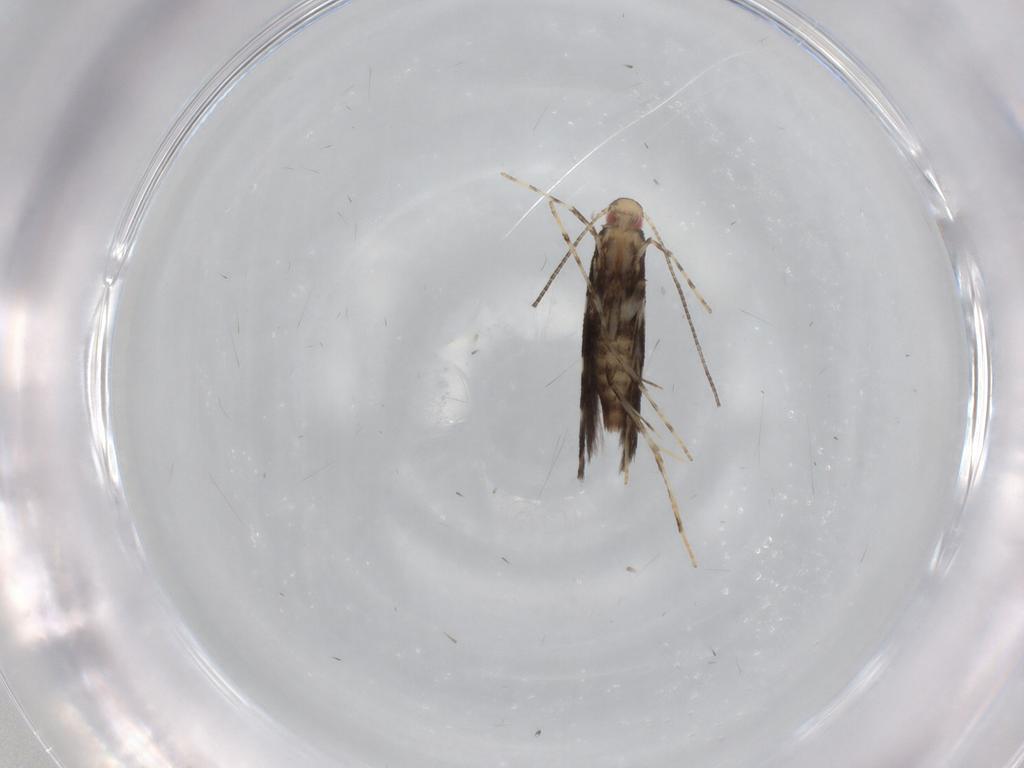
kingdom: Animalia
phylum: Arthropoda
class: Insecta
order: Lepidoptera
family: Gracillariidae
